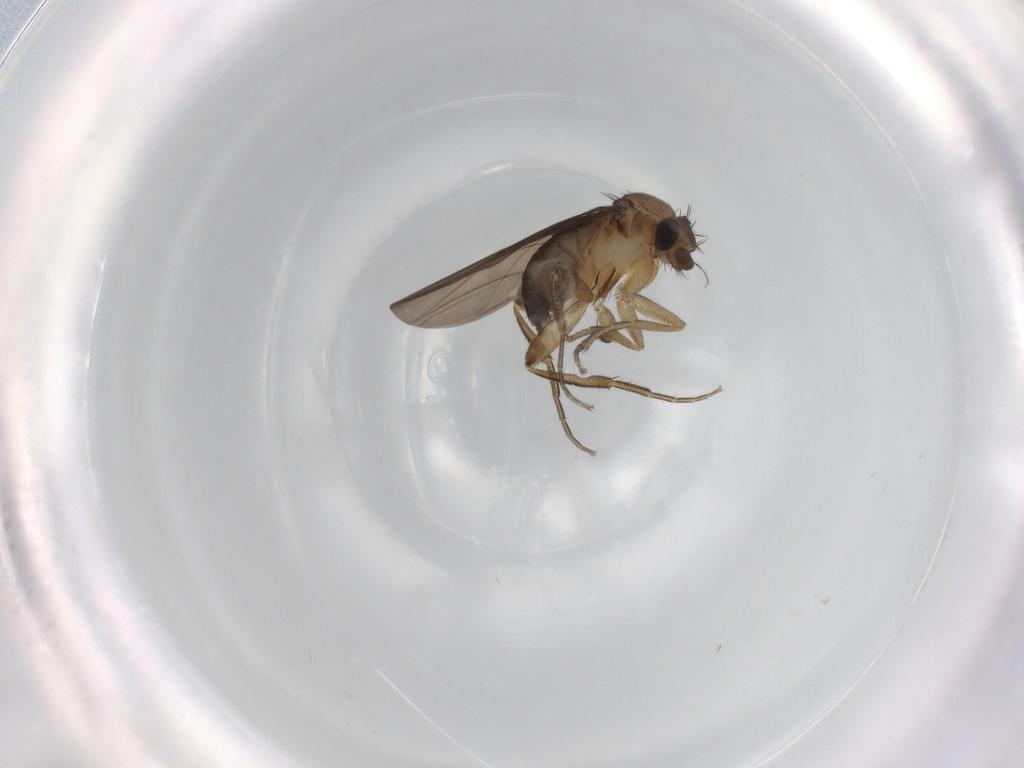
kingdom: Animalia
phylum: Arthropoda
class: Insecta
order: Diptera
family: Phoridae
